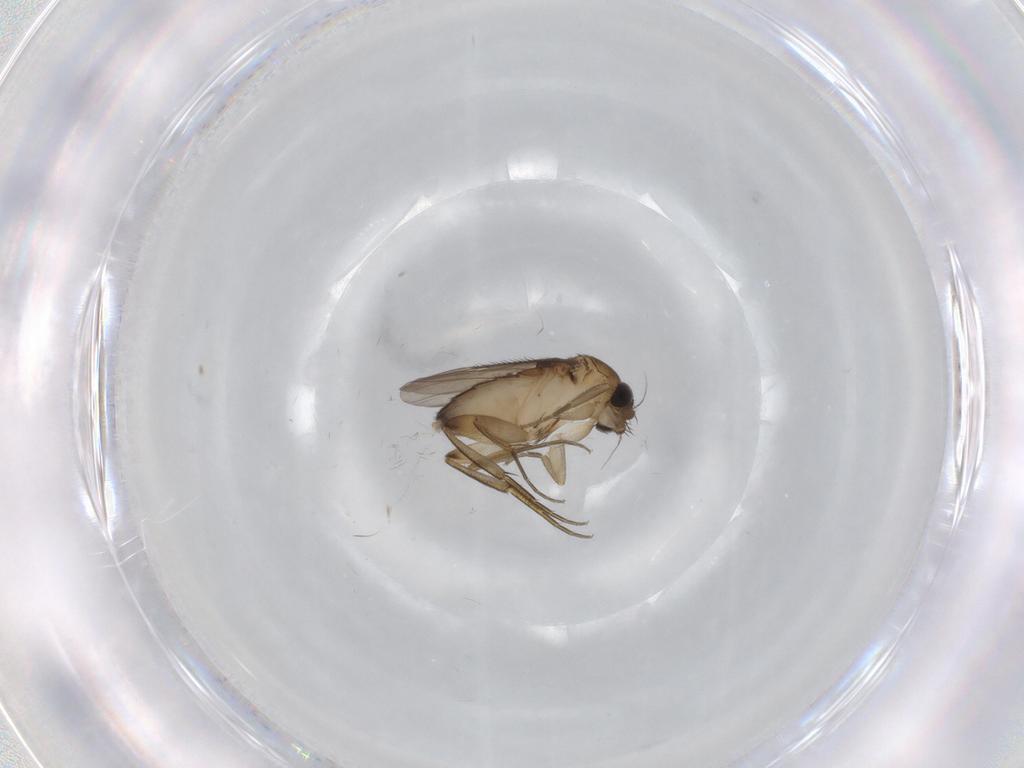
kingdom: Animalia
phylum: Arthropoda
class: Insecta
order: Diptera
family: Phoridae
